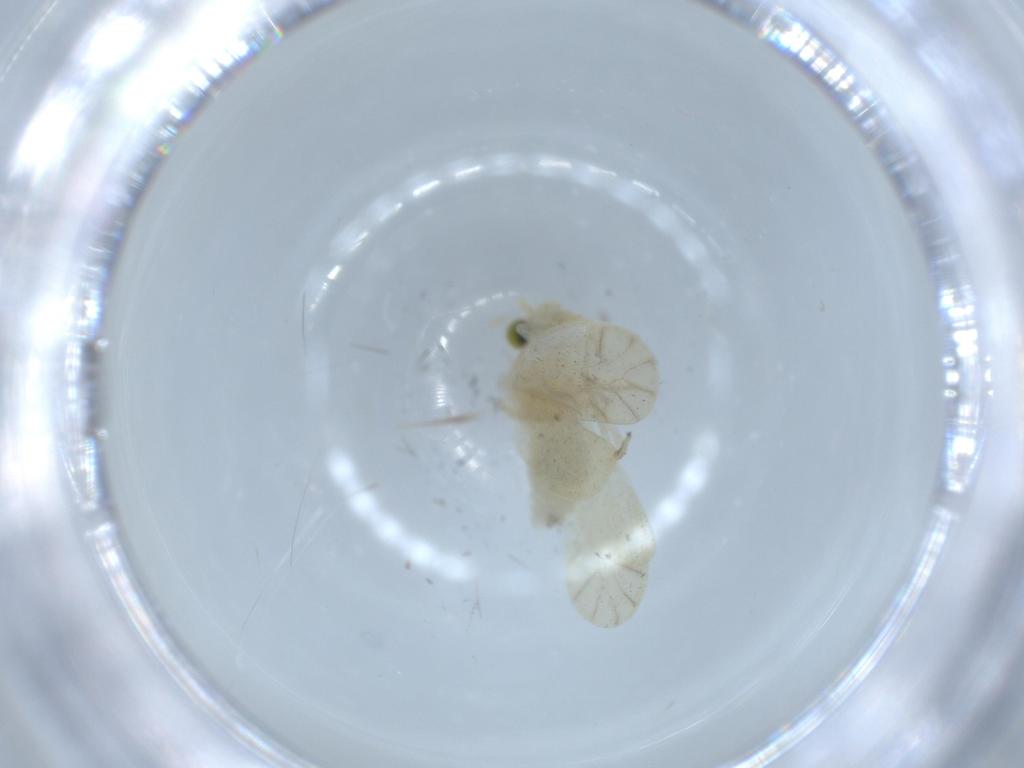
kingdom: Animalia
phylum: Arthropoda
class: Insecta
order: Psocodea
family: Caeciliusidae
